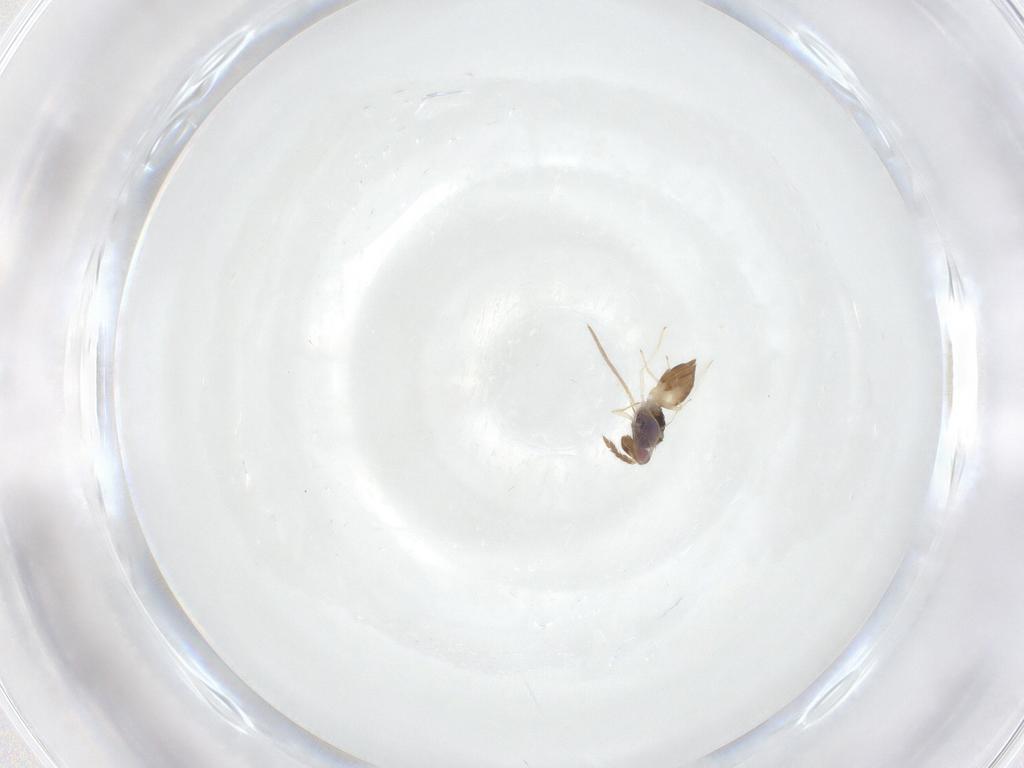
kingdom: Animalia
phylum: Arthropoda
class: Insecta
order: Hymenoptera
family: Eulophidae
